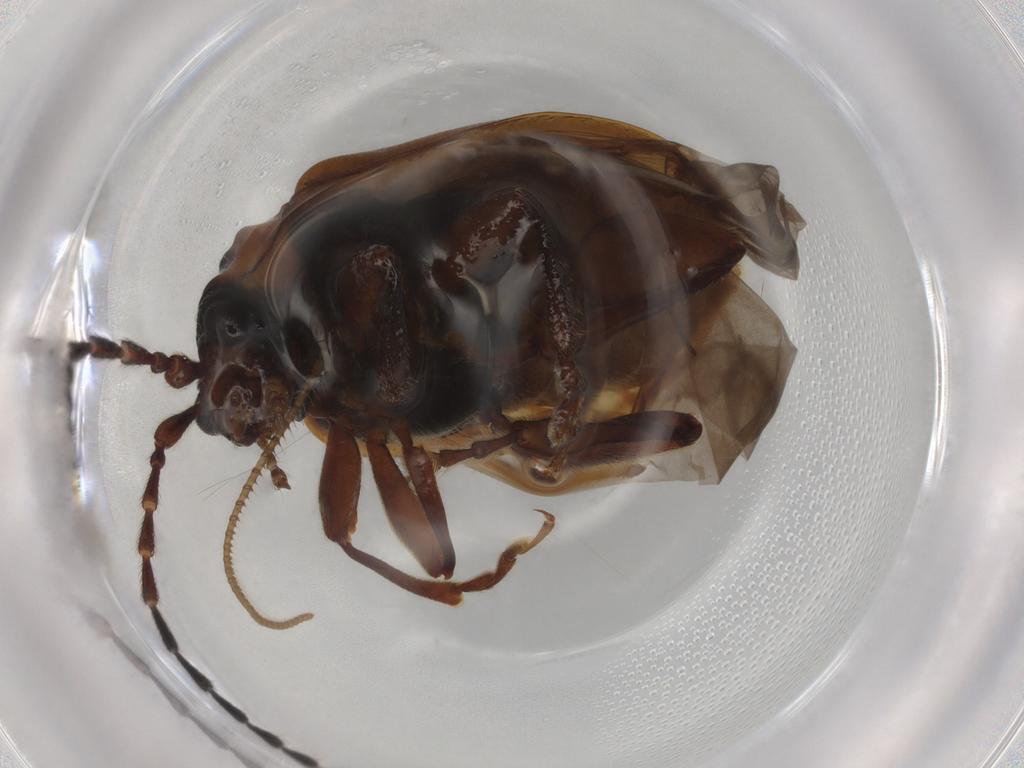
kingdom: Animalia
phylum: Arthropoda
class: Insecta
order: Coleoptera
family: Chrysomelidae
